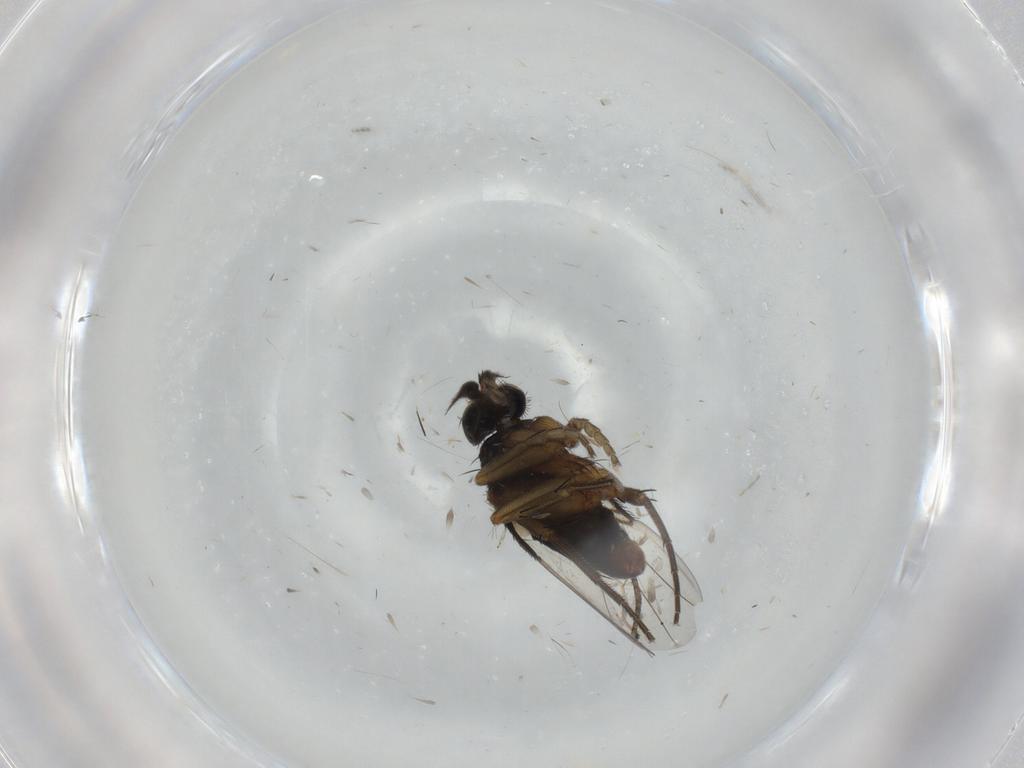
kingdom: Animalia
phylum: Arthropoda
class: Insecta
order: Diptera
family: Phoridae
